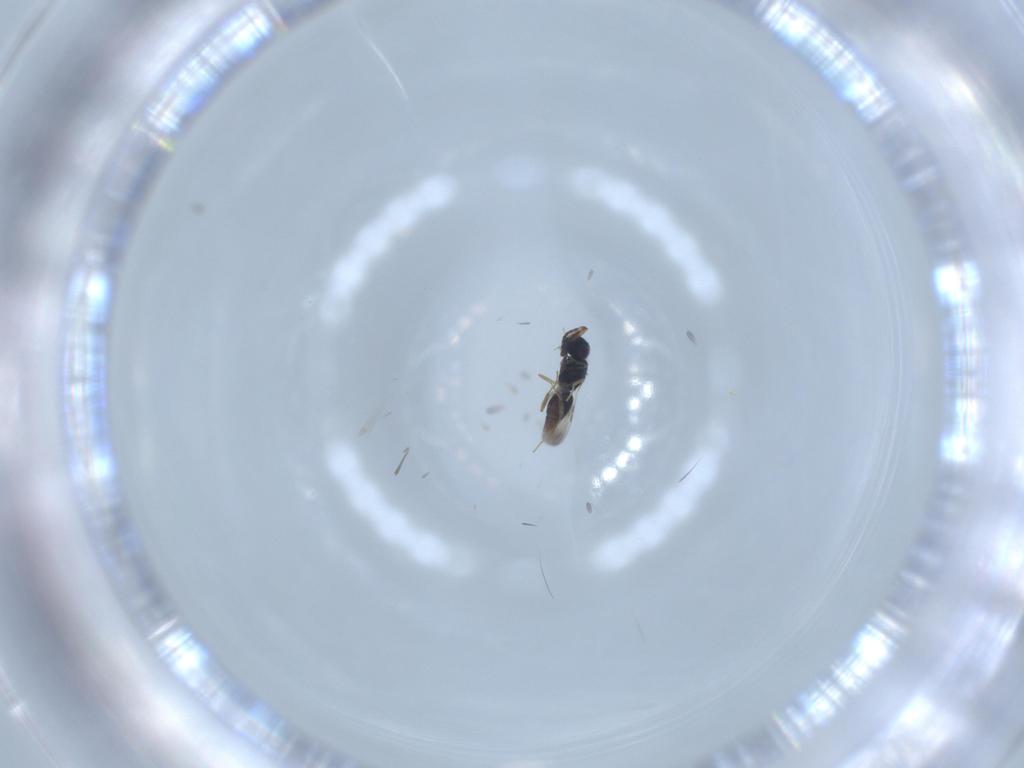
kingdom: Animalia
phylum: Arthropoda
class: Insecta
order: Hymenoptera
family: Ceraphronidae
